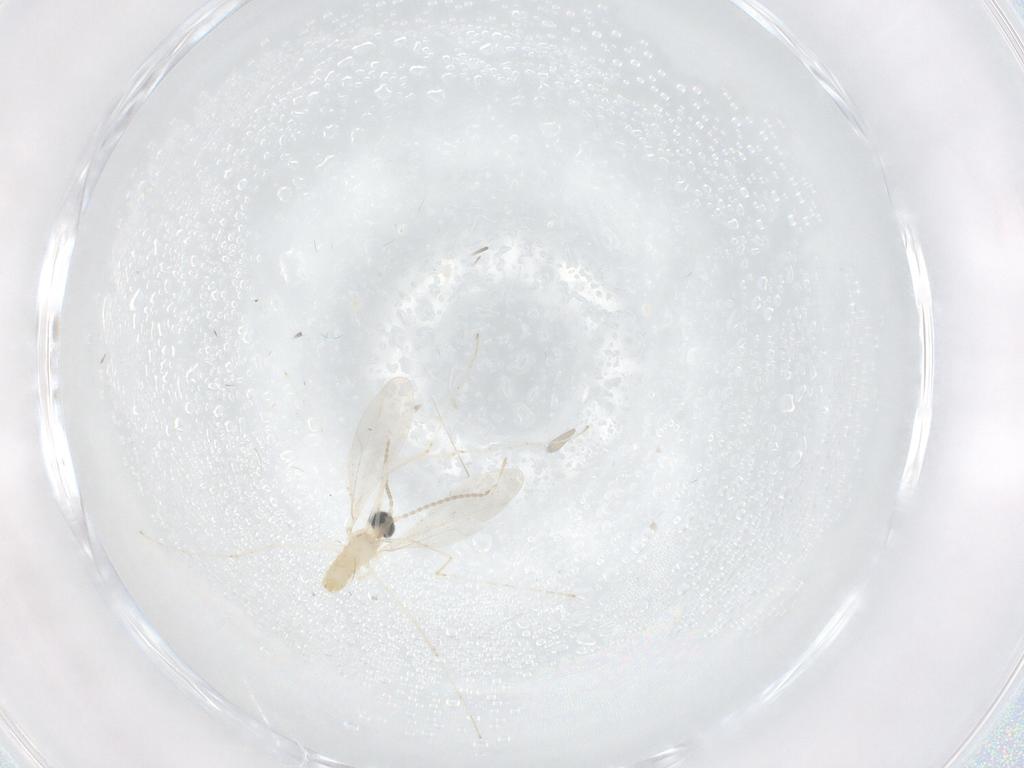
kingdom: Animalia
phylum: Arthropoda
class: Insecta
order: Diptera
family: Cecidomyiidae
